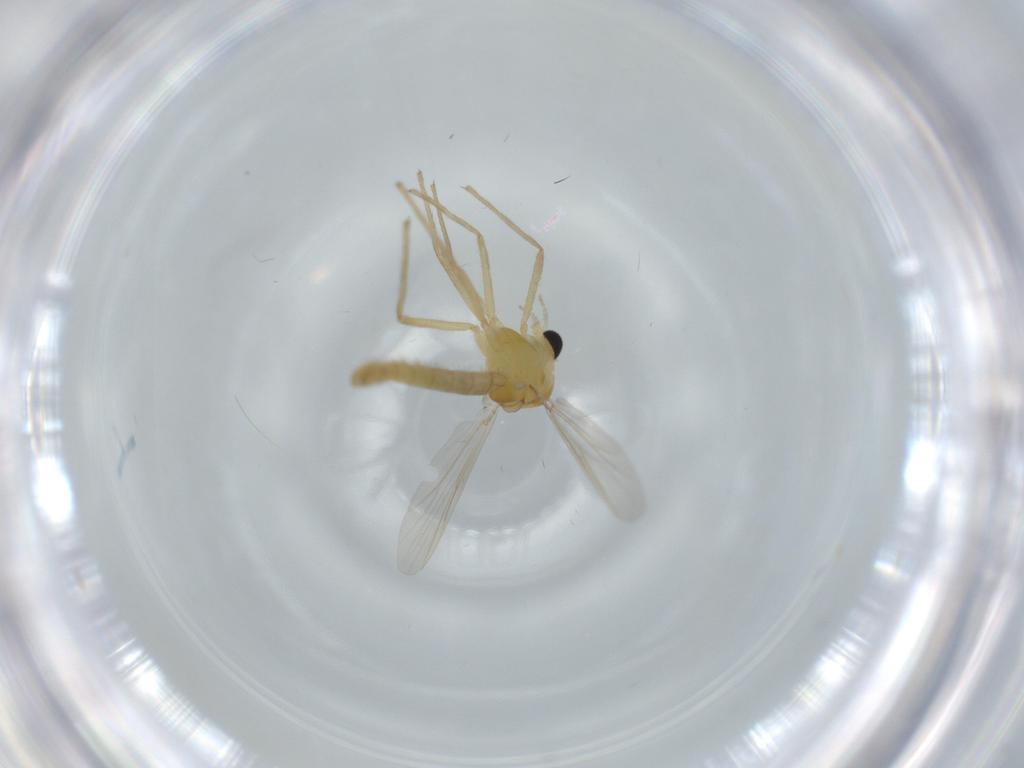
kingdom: Animalia
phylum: Arthropoda
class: Insecta
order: Diptera
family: Chironomidae
